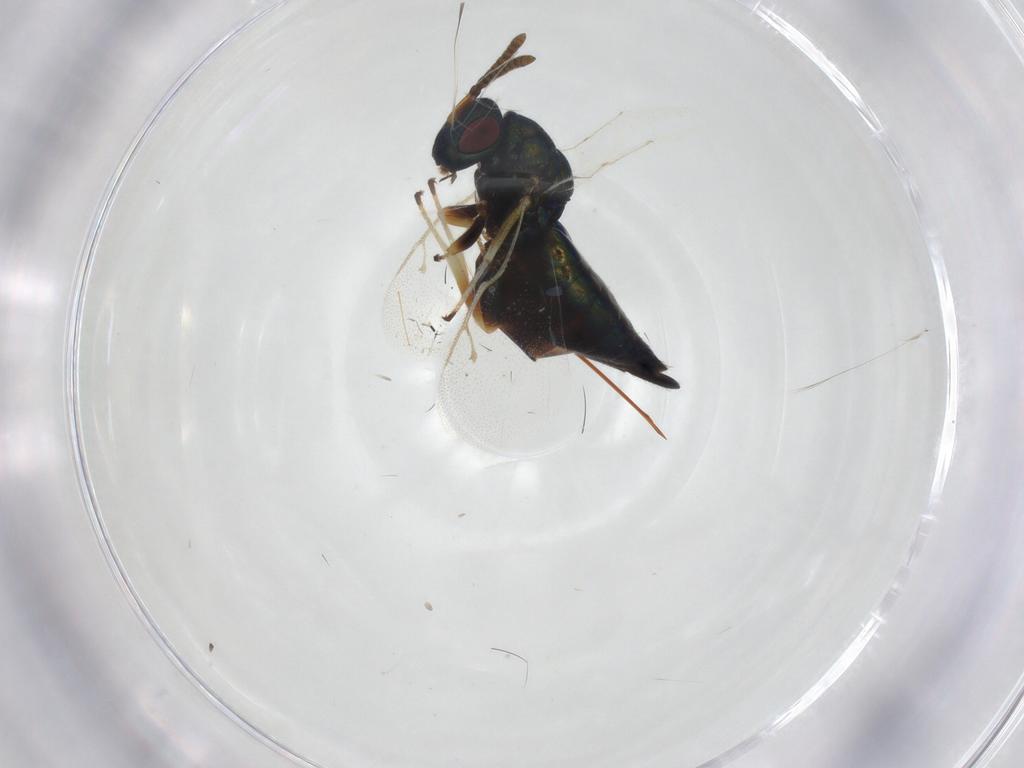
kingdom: Animalia
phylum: Arthropoda
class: Insecta
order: Hymenoptera
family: Pteromalidae
